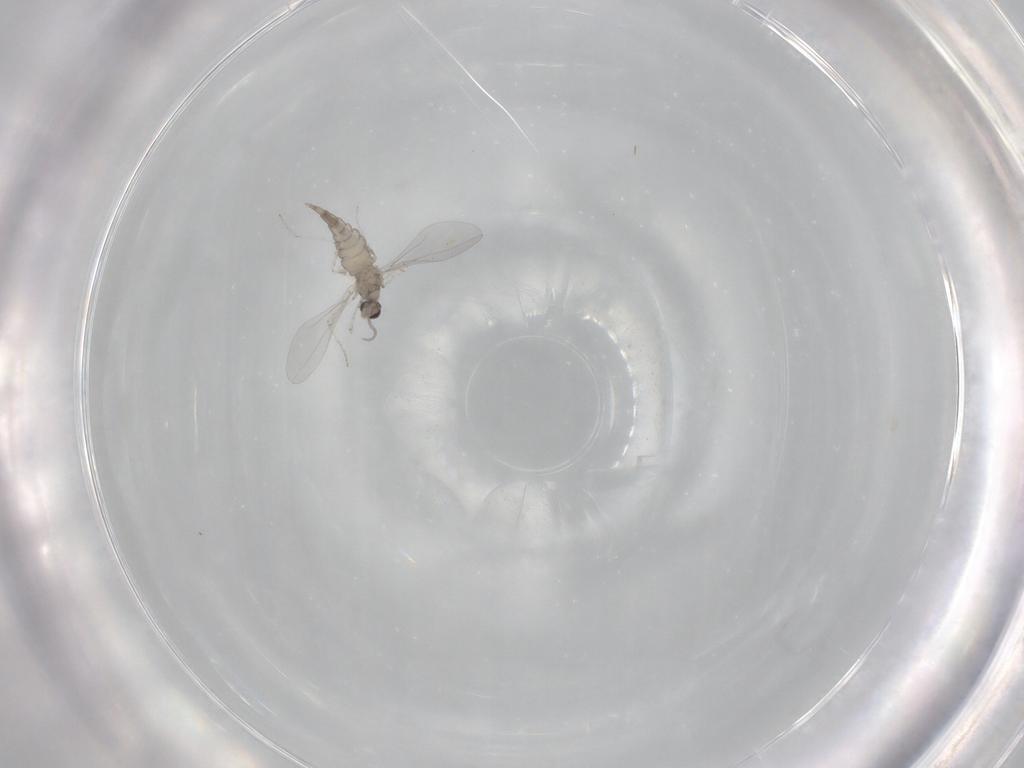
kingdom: Animalia
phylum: Arthropoda
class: Insecta
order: Diptera
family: Cecidomyiidae
